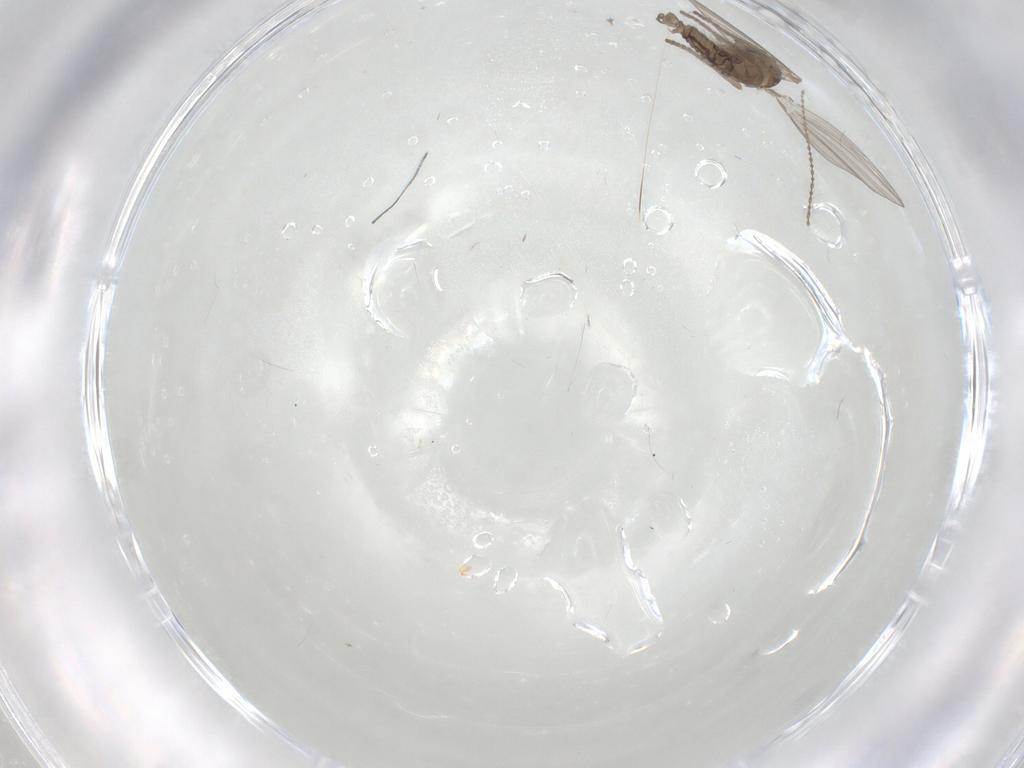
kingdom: Animalia
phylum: Arthropoda
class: Insecta
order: Diptera
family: Psychodidae
